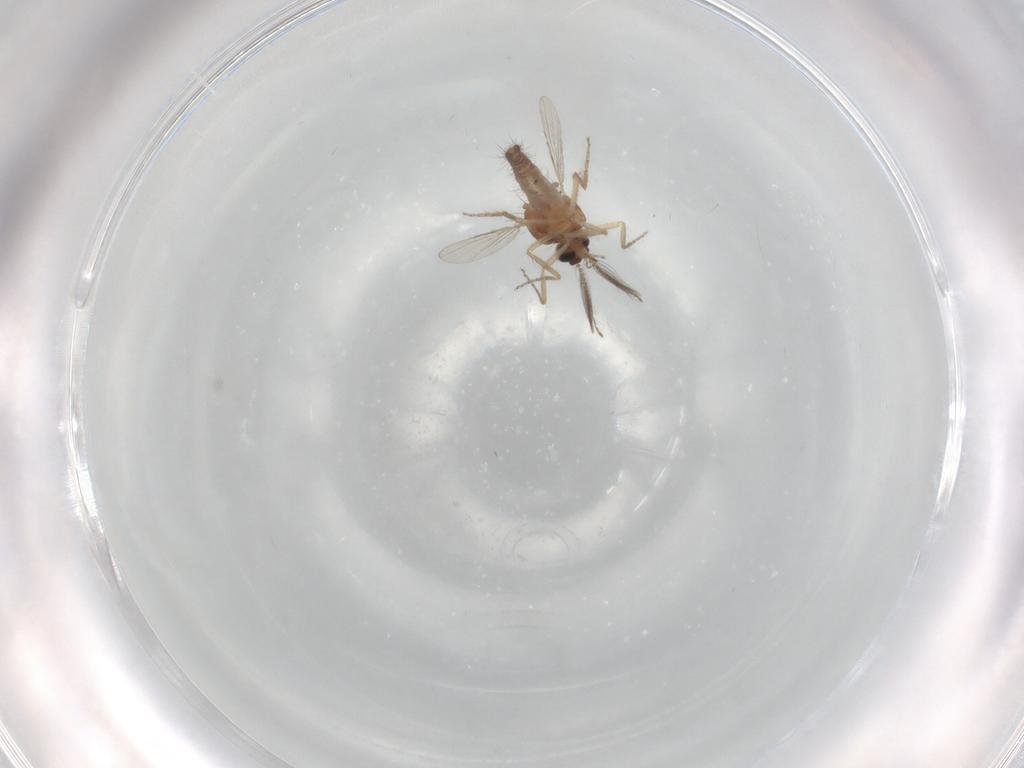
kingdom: Animalia
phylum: Arthropoda
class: Insecta
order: Diptera
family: Ceratopogonidae
